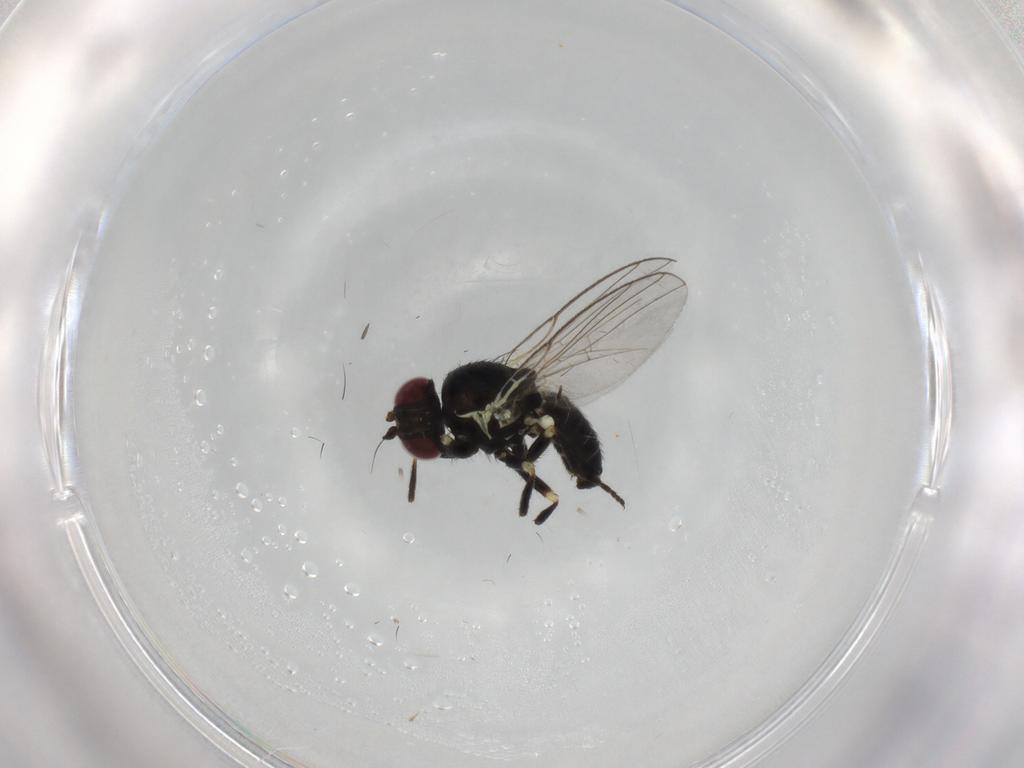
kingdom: Animalia
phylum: Arthropoda
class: Insecta
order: Diptera
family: Agromyzidae
